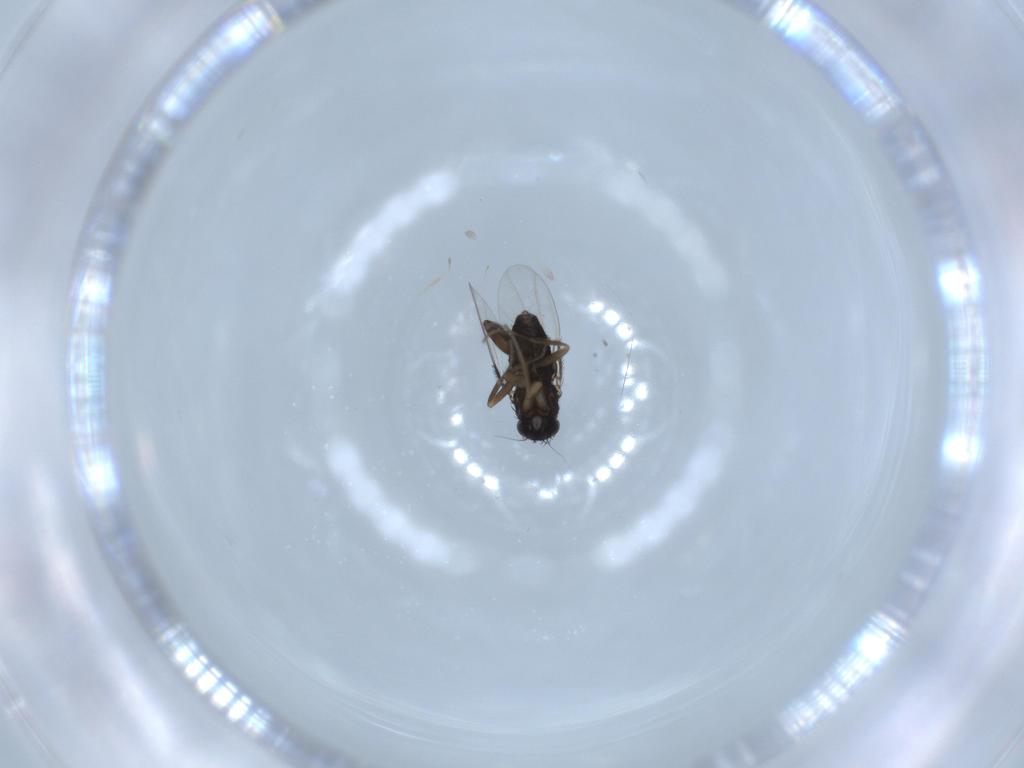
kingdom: Animalia
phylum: Arthropoda
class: Insecta
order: Diptera
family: Phoridae
